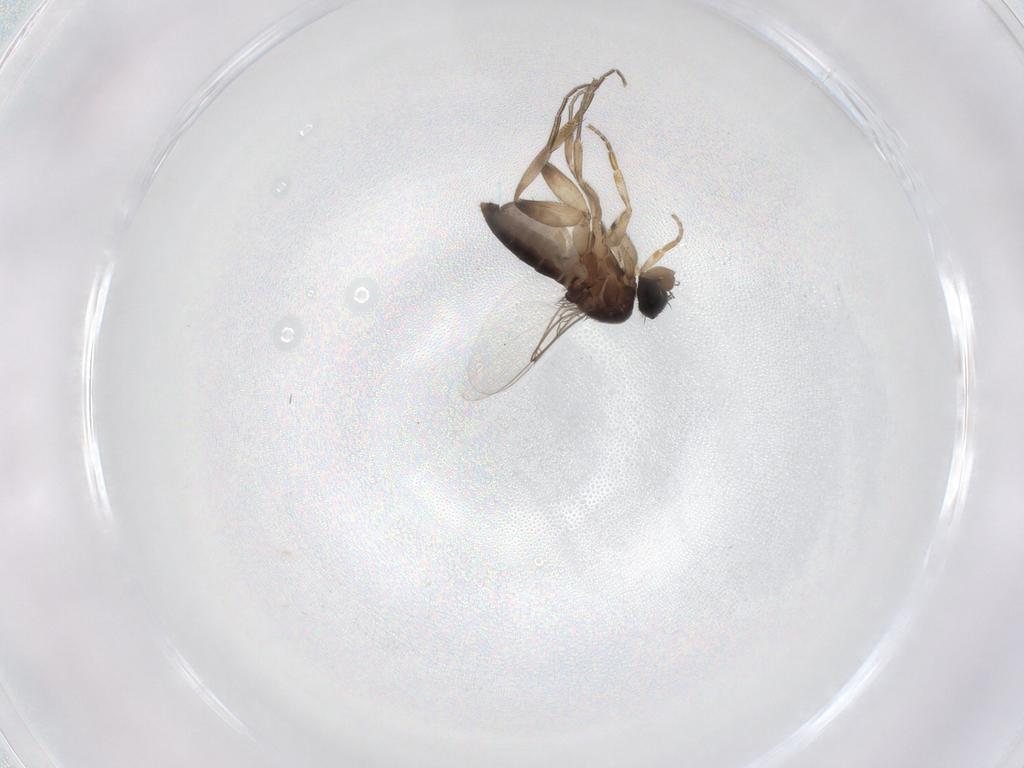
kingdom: Animalia
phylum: Arthropoda
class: Insecta
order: Diptera
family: Phoridae
